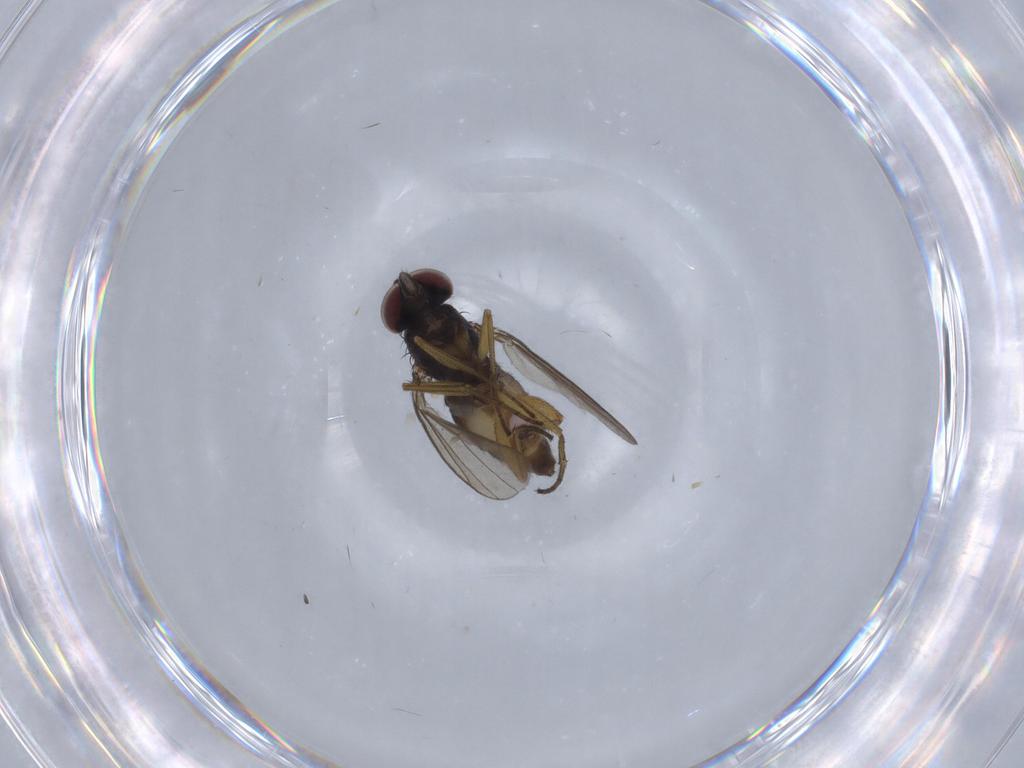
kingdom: Animalia
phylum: Arthropoda
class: Insecta
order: Diptera
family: Dolichopodidae
